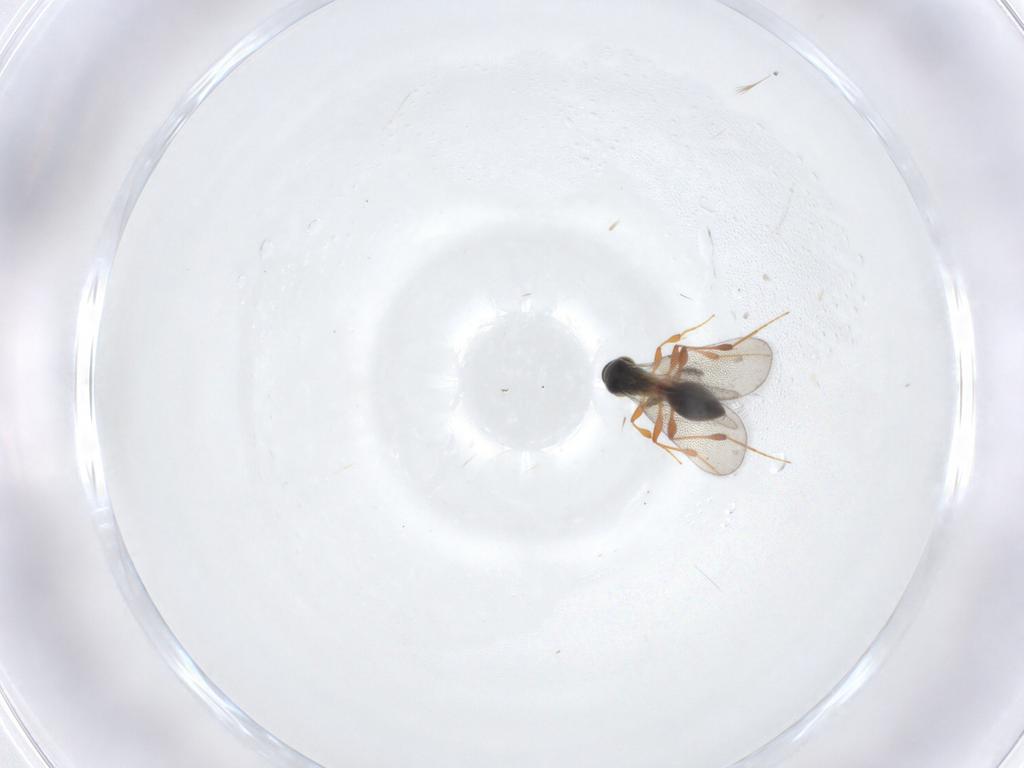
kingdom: Animalia
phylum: Arthropoda
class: Insecta
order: Hymenoptera
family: Platygastridae
